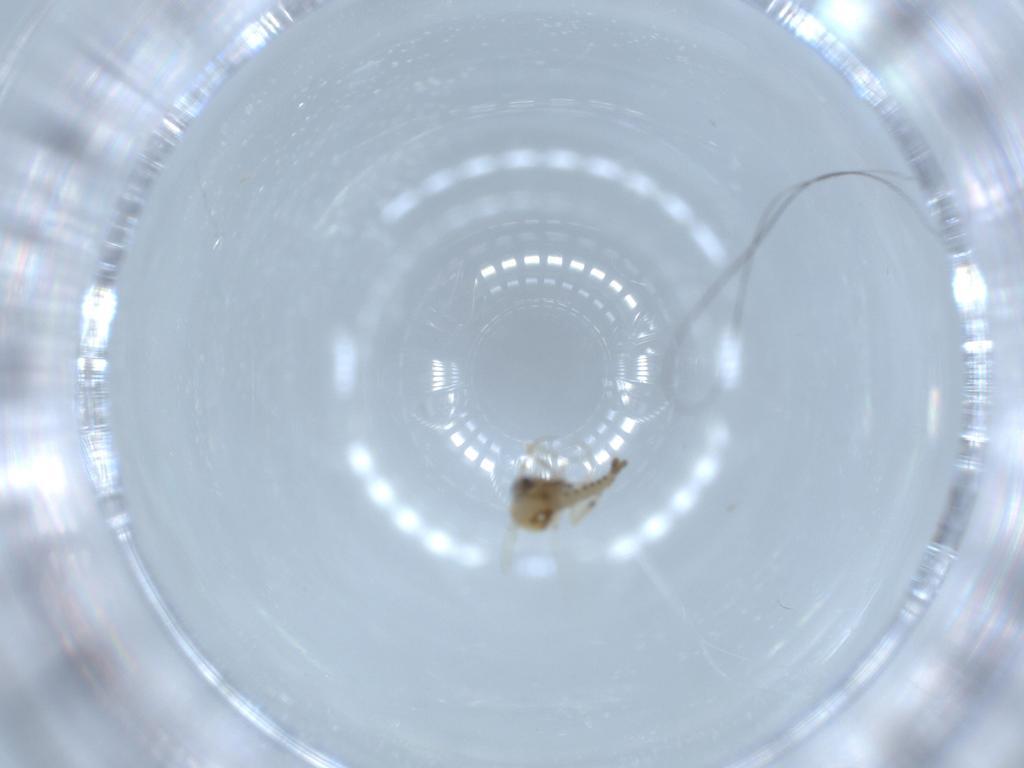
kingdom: Animalia
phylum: Arthropoda
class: Insecta
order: Diptera
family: Ceratopogonidae
